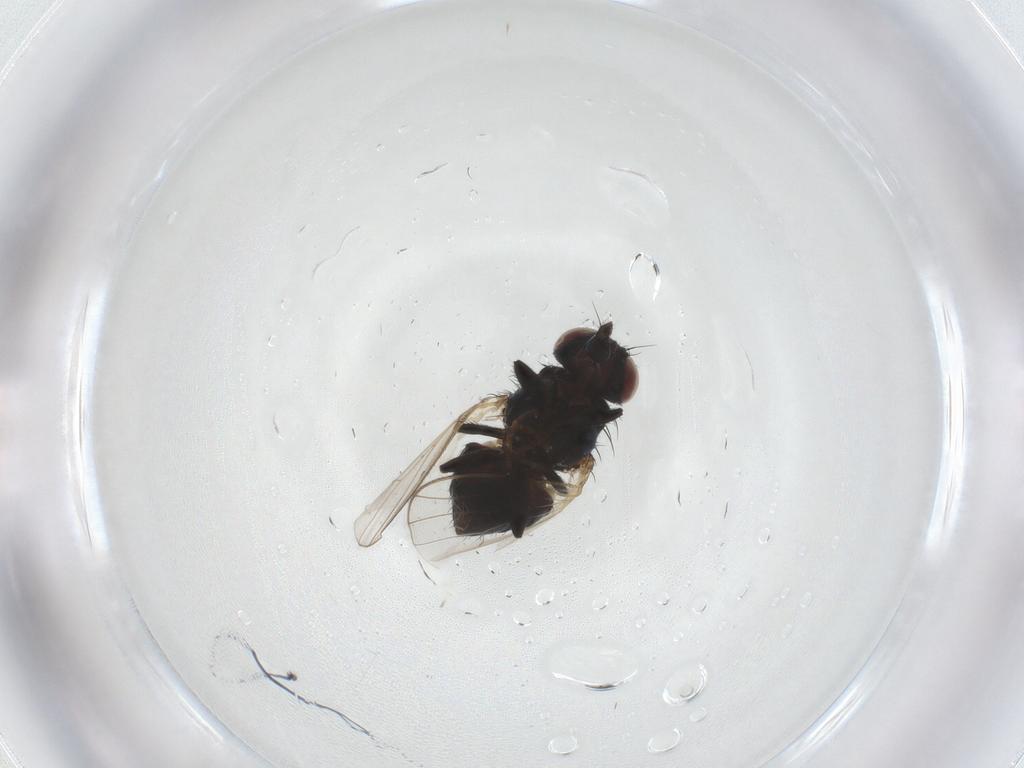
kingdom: Animalia
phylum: Arthropoda
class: Insecta
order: Diptera
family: Carnidae
